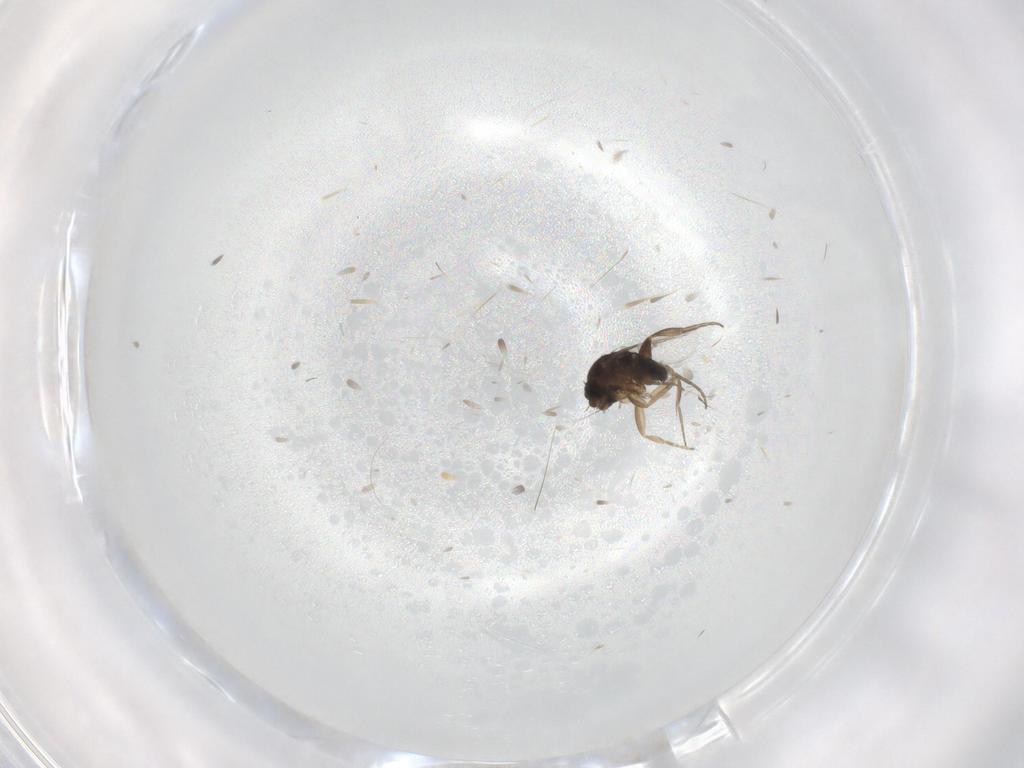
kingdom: Animalia
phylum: Arthropoda
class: Insecta
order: Diptera
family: Phoridae
